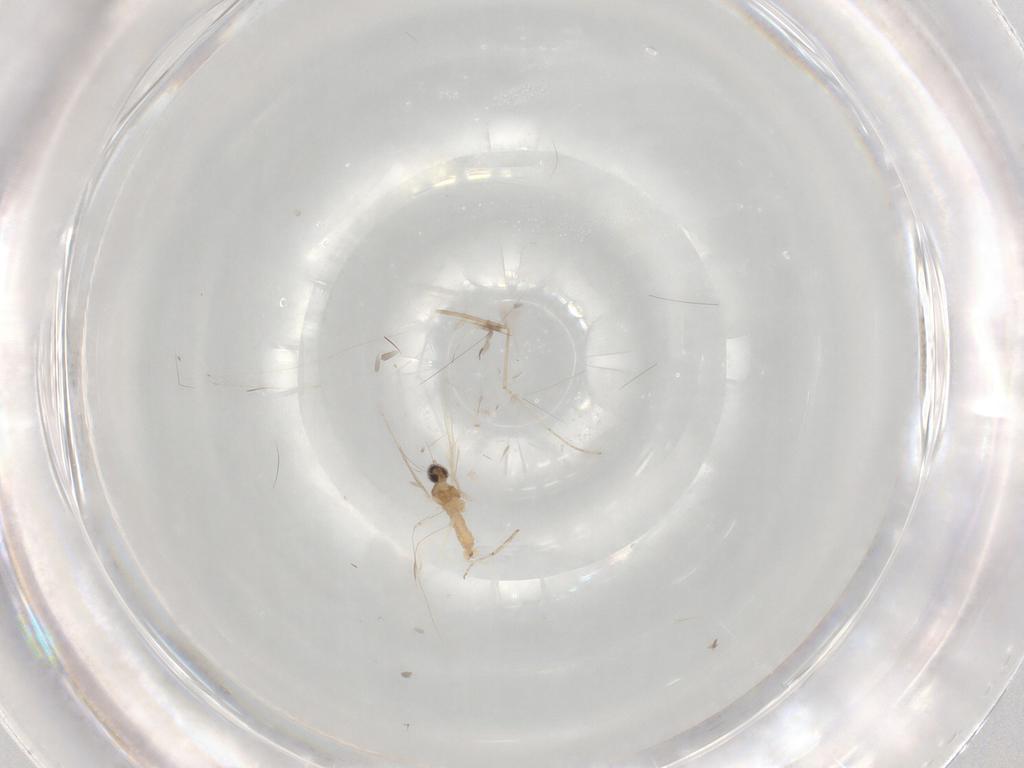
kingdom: Animalia
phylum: Arthropoda
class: Insecta
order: Diptera
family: Cecidomyiidae
